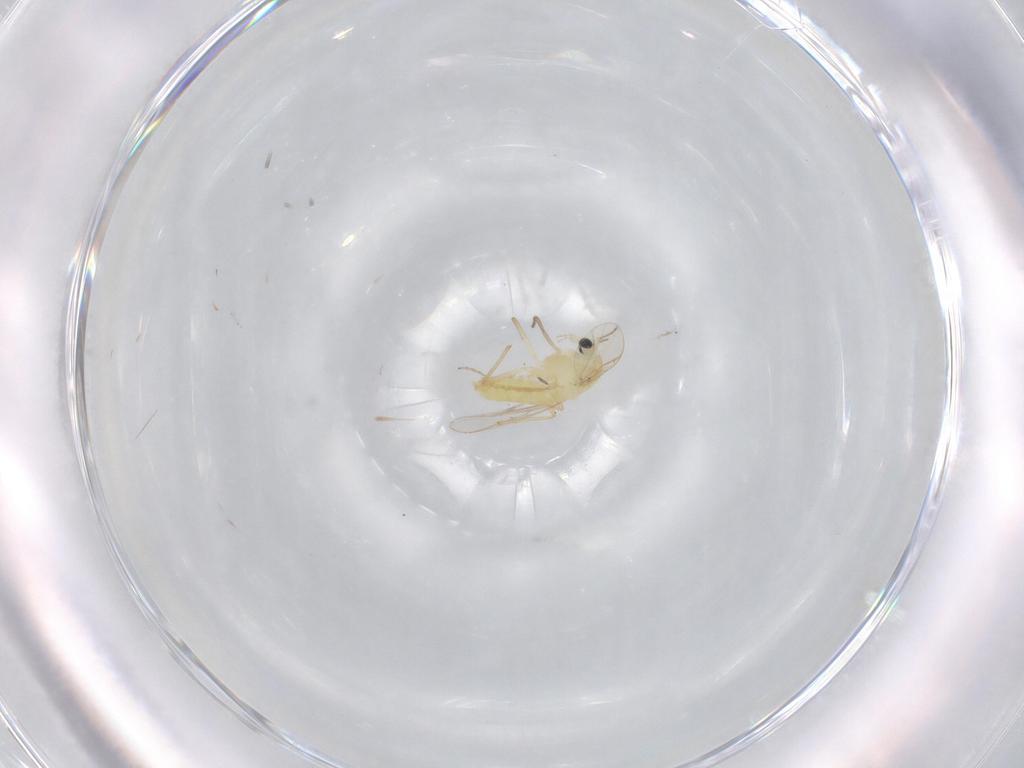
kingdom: Animalia
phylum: Arthropoda
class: Insecta
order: Diptera
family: Chironomidae
